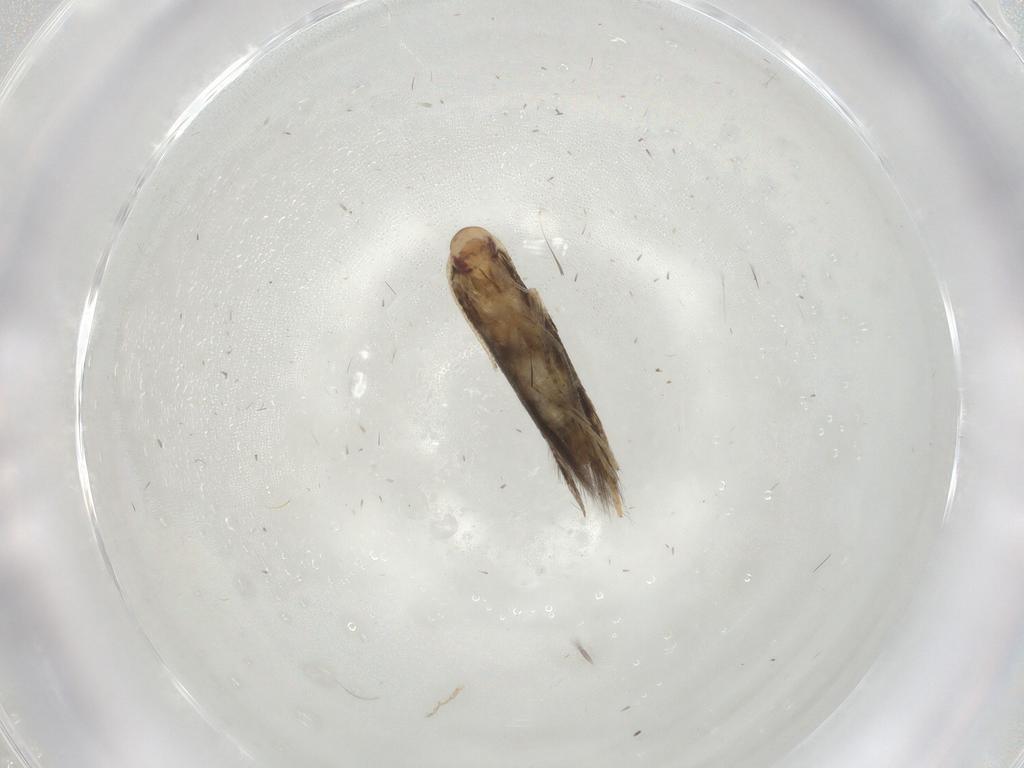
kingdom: Animalia
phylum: Arthropoda
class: Insecta
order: Lepidoptera
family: Momphidae
